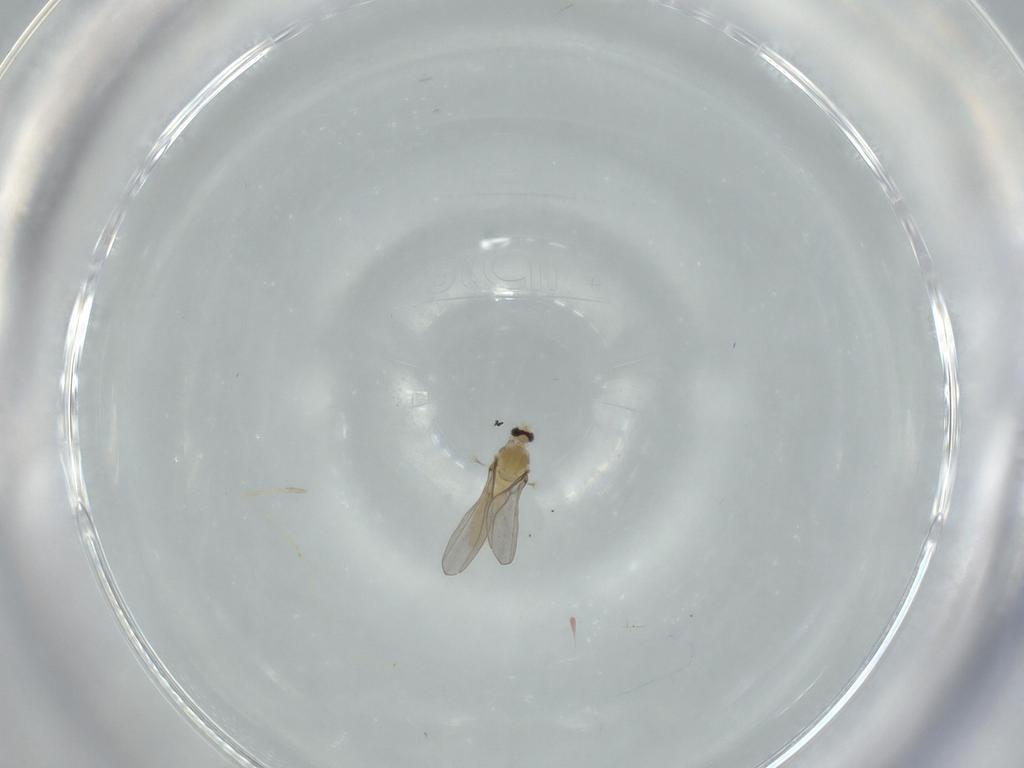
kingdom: Animalia
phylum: Arthropoda
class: Insecta
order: Diptera
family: Cecidomyiidae
